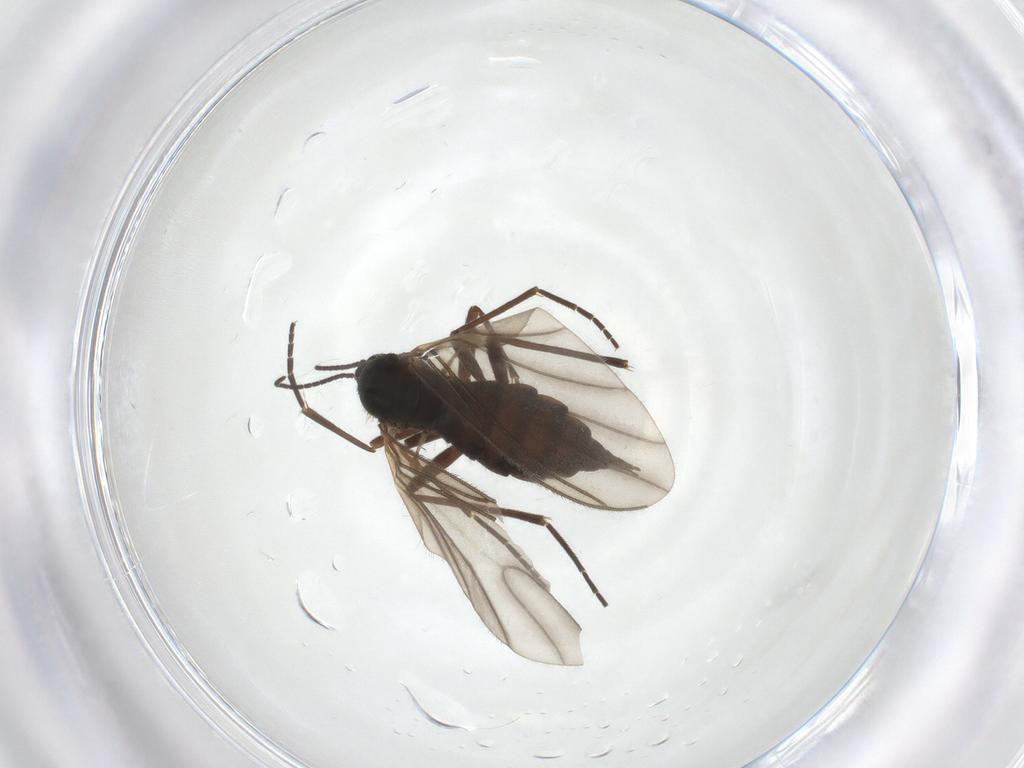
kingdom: Animalia
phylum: Arthropoda
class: Insecta
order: Diptera
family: Sciaridae
